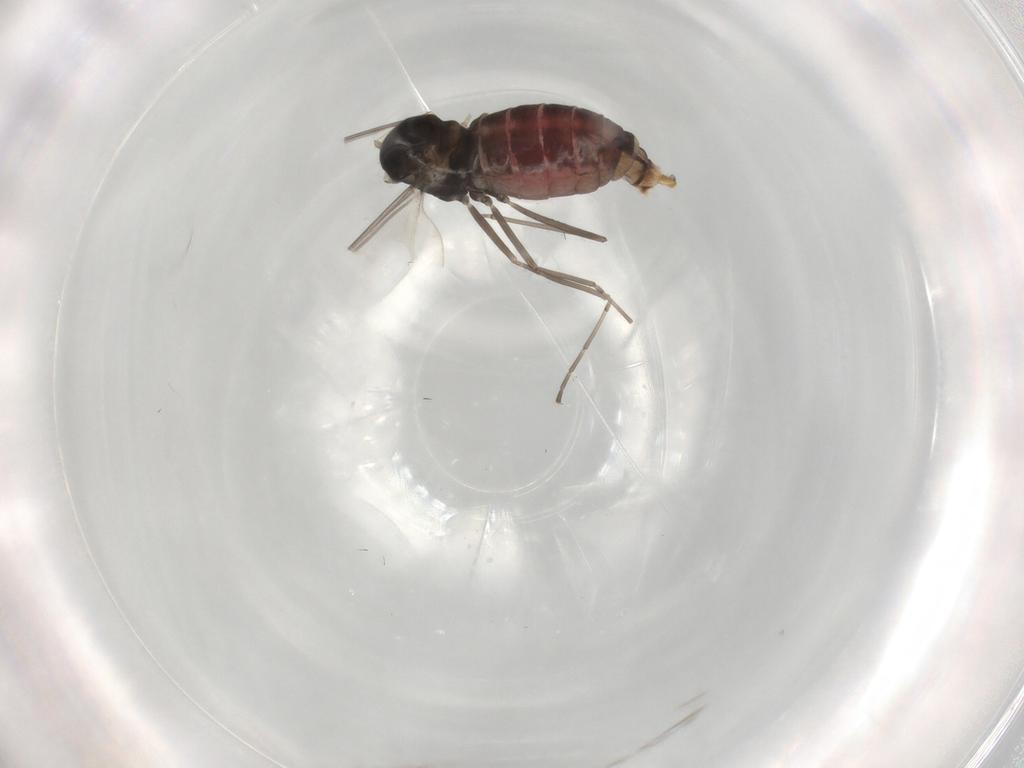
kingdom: Animalia
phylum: Arthropoda
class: Insecta
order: Diptera
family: Cecidomyiidae
